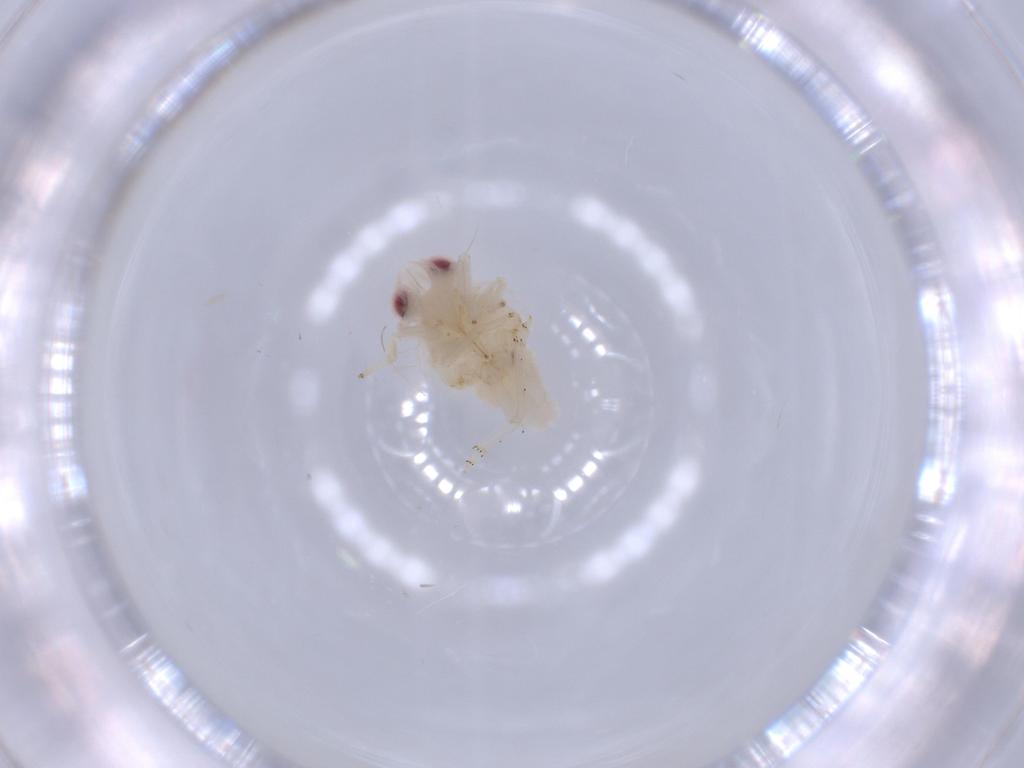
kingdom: Animalia
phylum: Arthropoda
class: Insecta
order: Hemiptera
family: Nogodinidae
